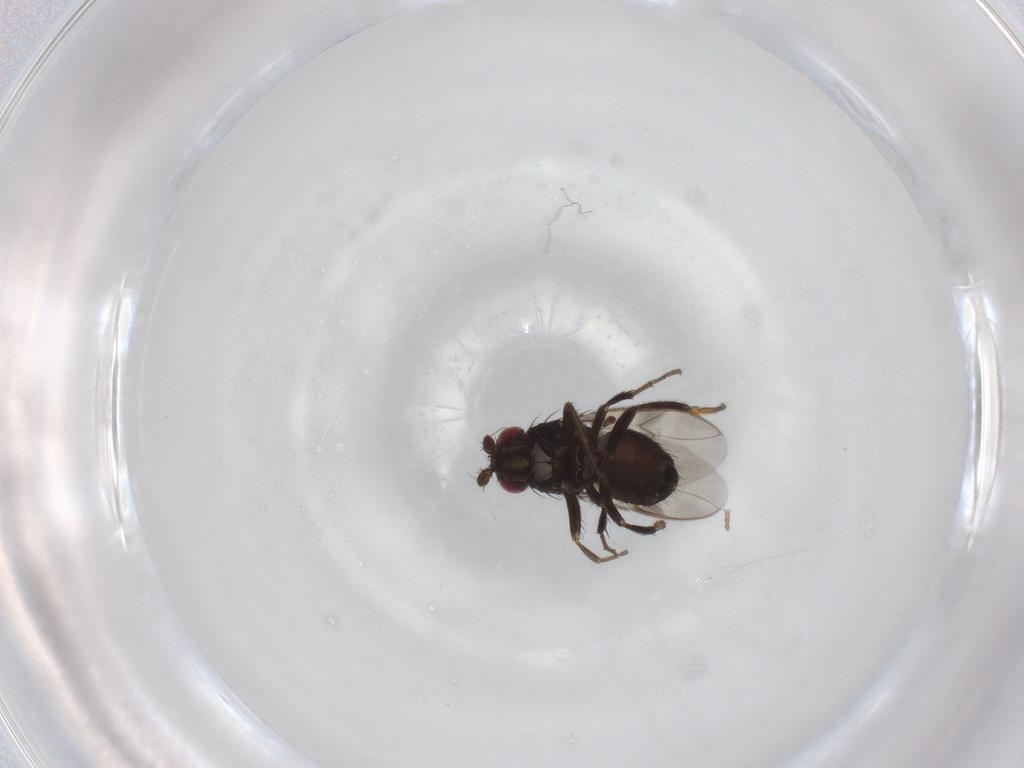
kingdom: Animalia
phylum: Arthropoda
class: Insecta
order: Diptera
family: Sphaeroceridae
